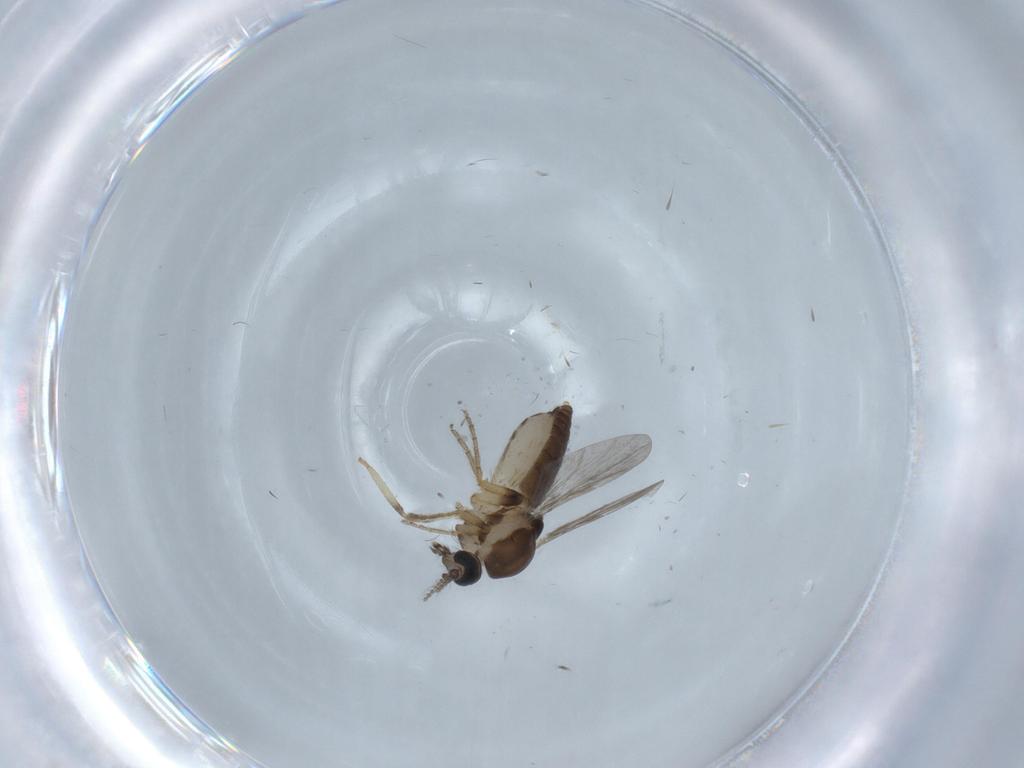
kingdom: Animalia
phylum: Arthropoda
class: Insecta
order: Diptera
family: Ceratopogonidae
